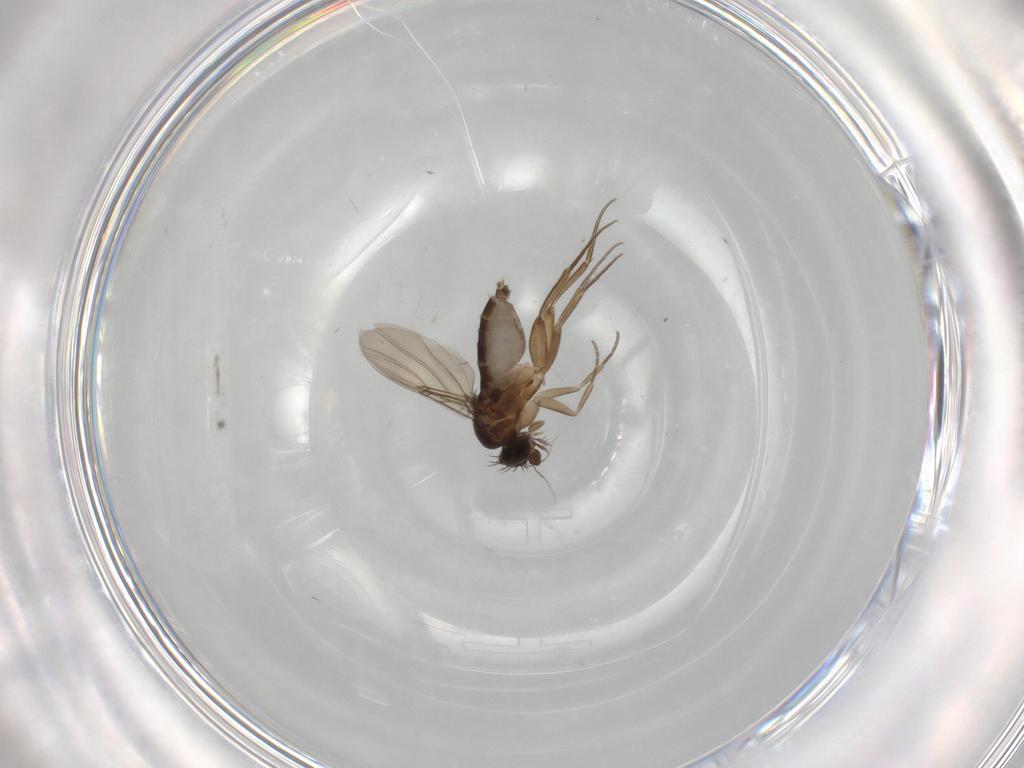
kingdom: Animalia
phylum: Arthropoda
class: Insecta
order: Diptera
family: Phoridae
